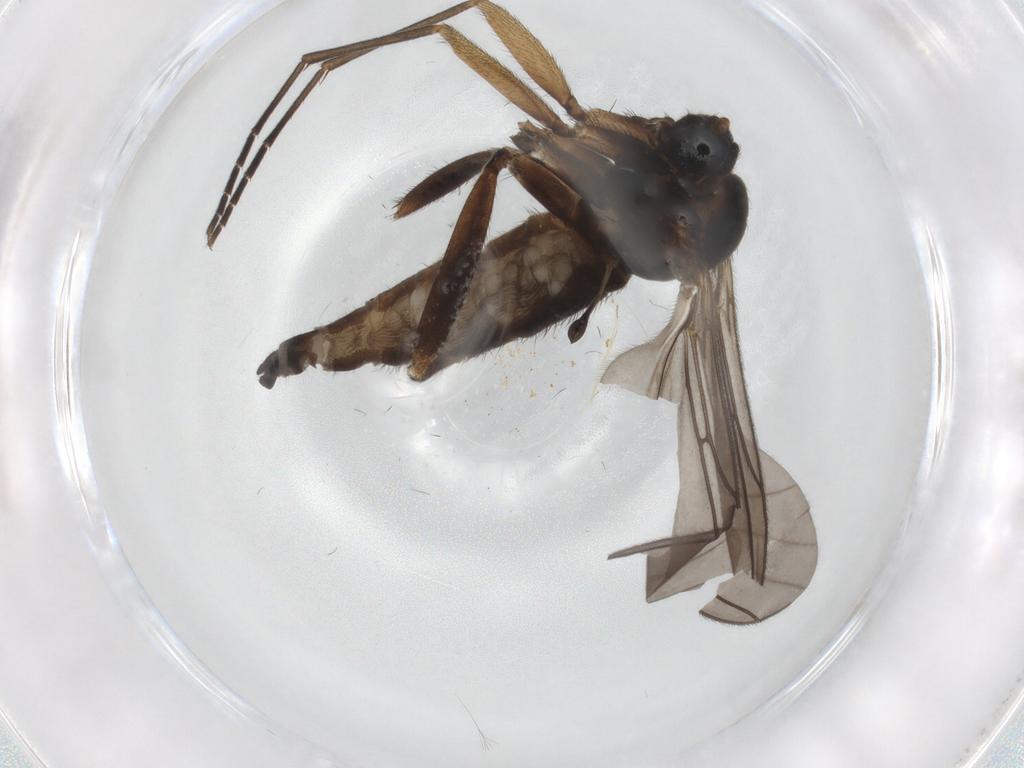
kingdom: Animalia
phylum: Arthropoda
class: Insecta
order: Diptera
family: Sciaridae
